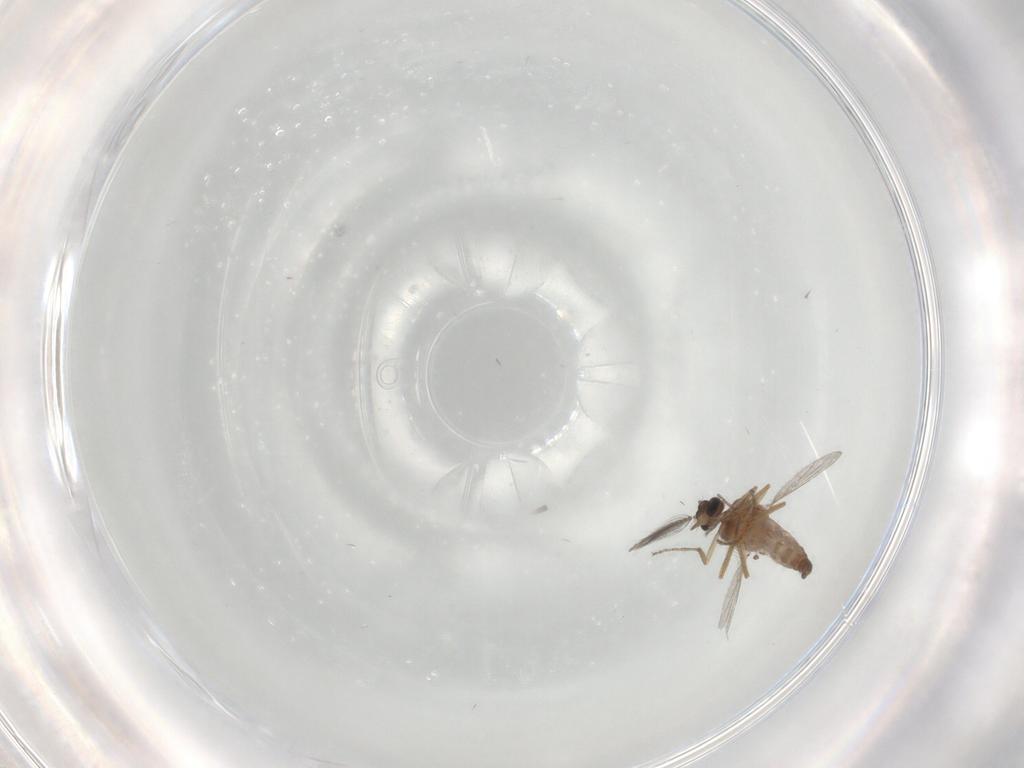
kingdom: Animalia
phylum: Arthropoda
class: Insecta
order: Diptera
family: Ceratopogonidae
